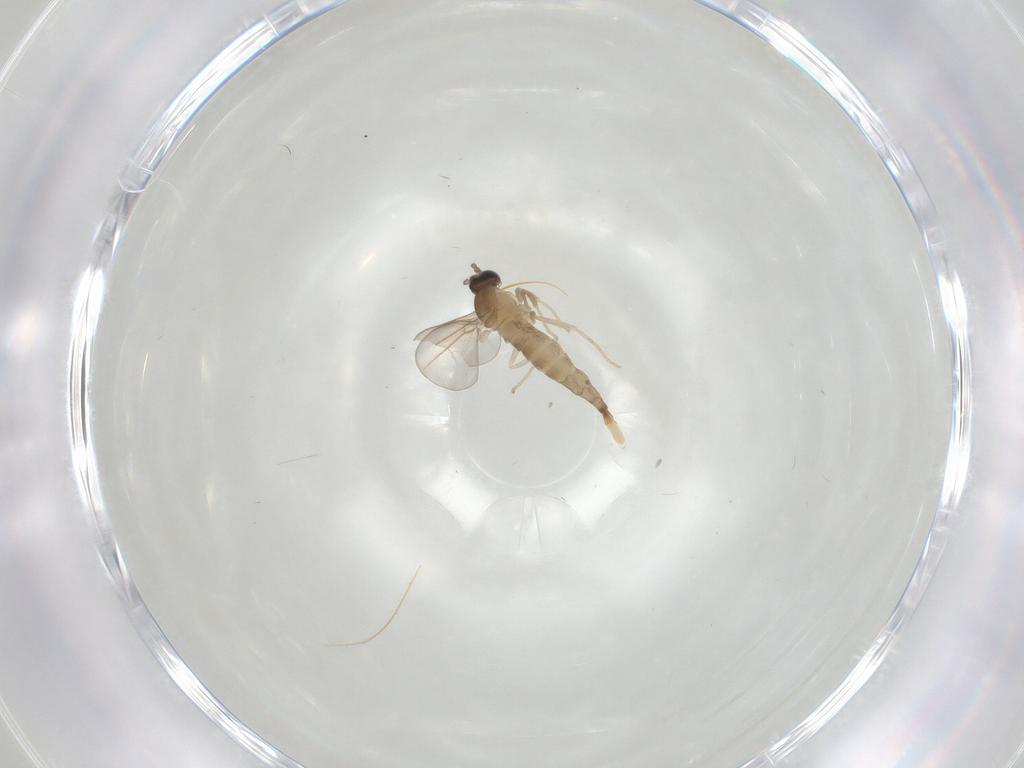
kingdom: Animalia
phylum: Arthropoda
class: Insecta
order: Diptera
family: Cecidomyiidae
